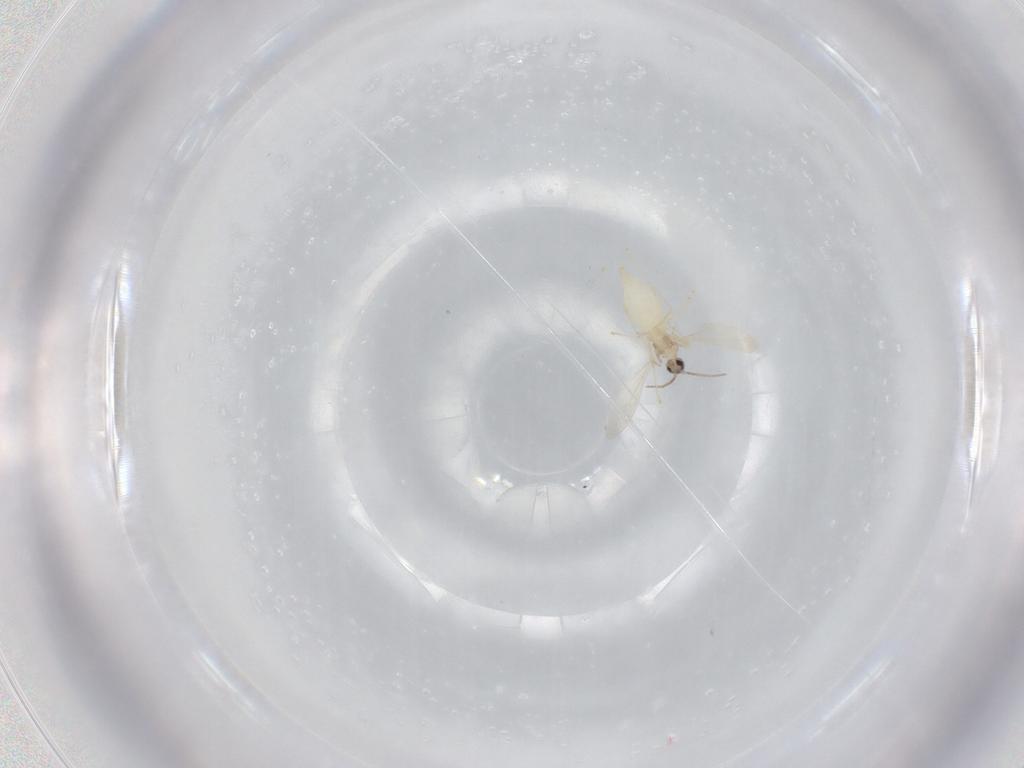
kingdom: Animalia
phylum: Arthropoda
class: Insecta
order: Diptera
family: Cecidomyiidae
